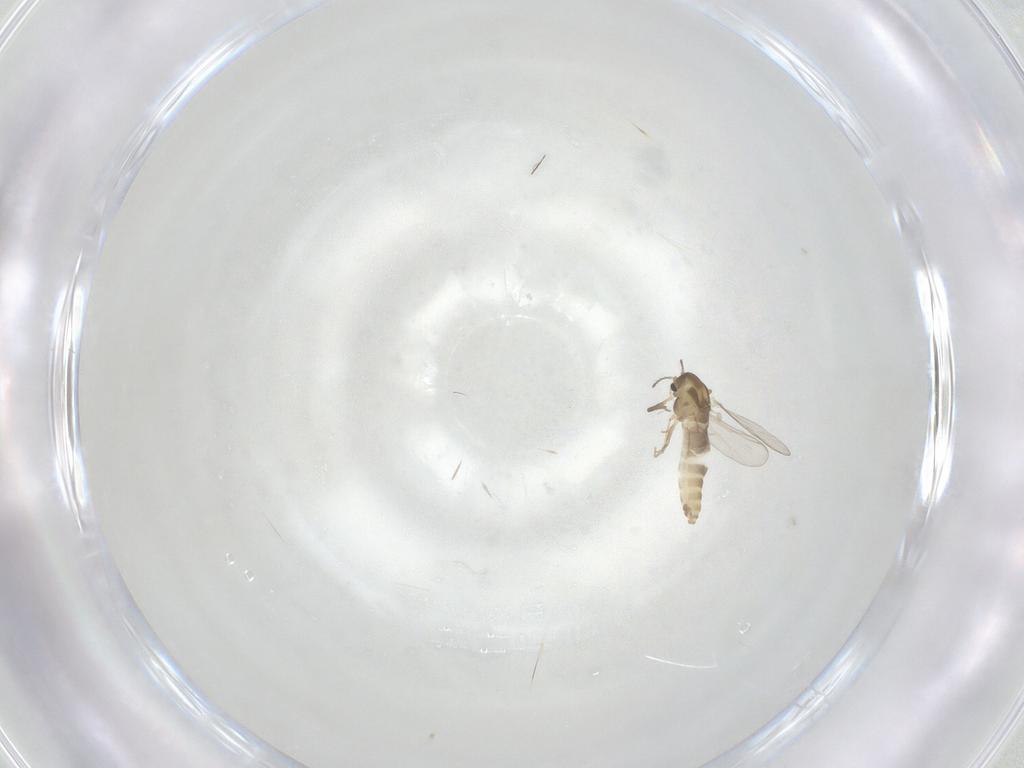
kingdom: Animalia
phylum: Arthropoda
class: Insecta
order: Diptera
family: Chironomidae
